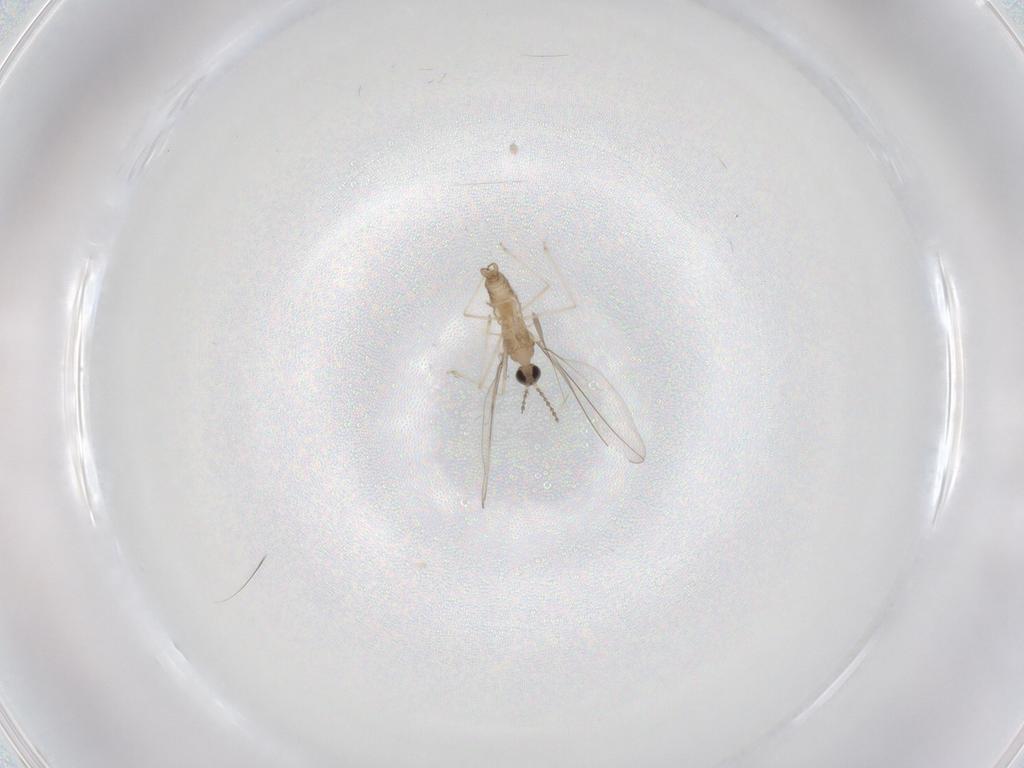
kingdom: Animalia
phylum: Arthropoda
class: Insecta
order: Diptera
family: Cecidomyiidae
